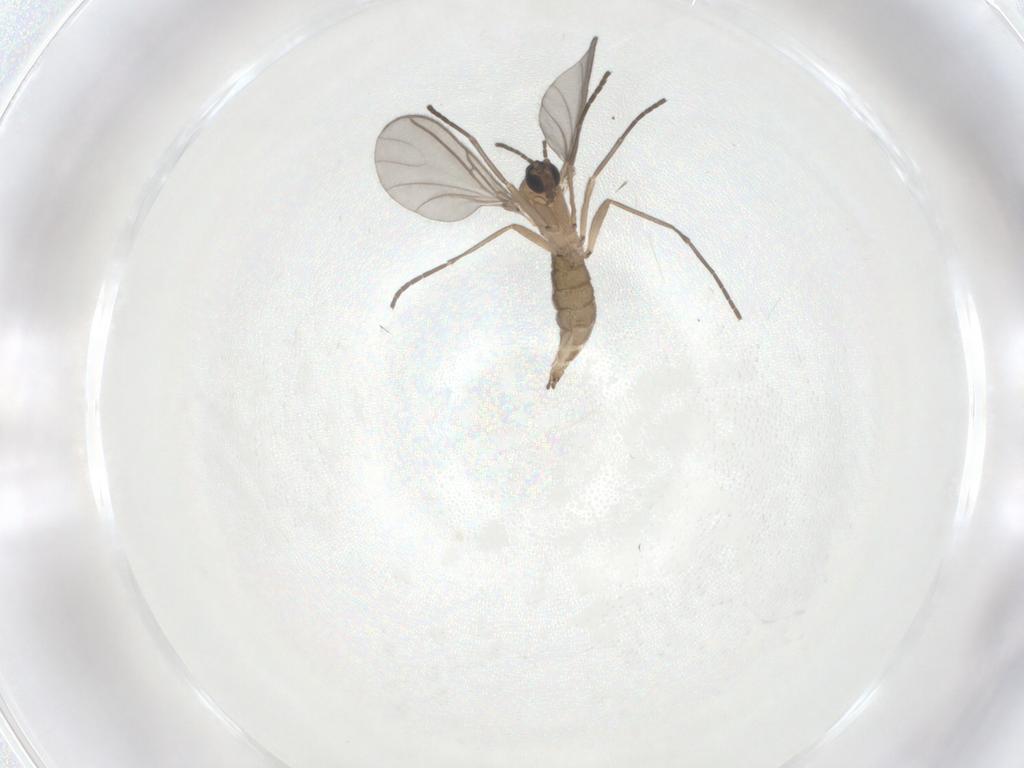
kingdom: Animalia
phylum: Arthropoda
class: Insecta
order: Diptera
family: Sciaridae
